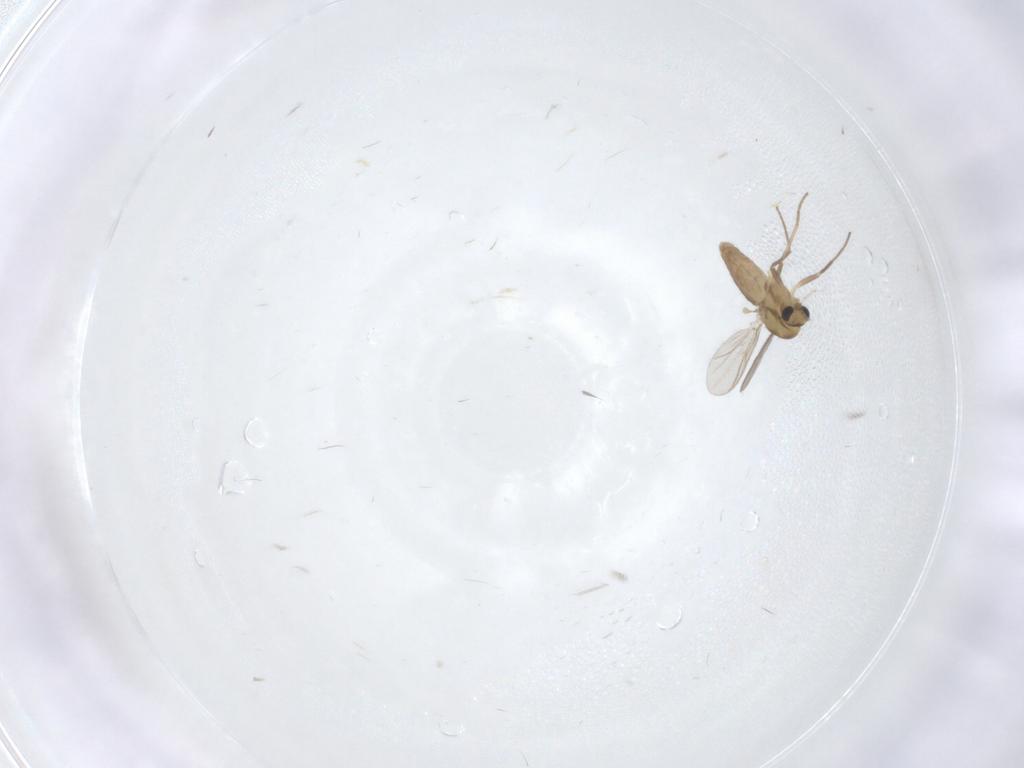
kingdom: Animalia
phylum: Arthropoda
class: Insecta
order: Diptera
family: Chironomidae
